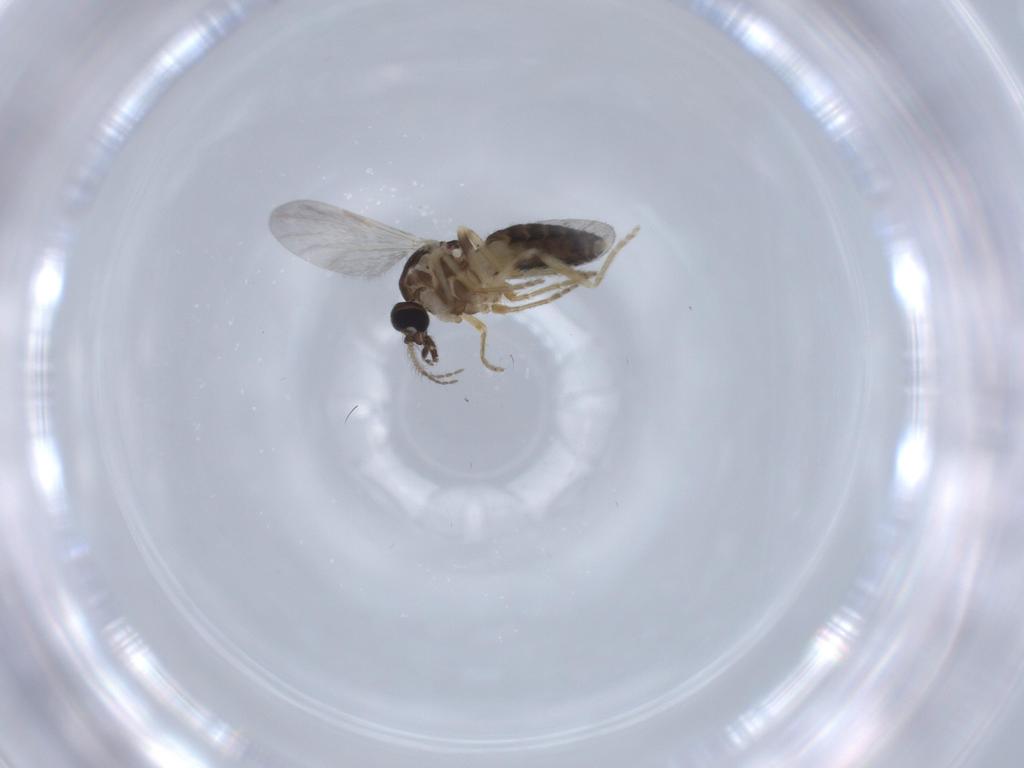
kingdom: Animalia
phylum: Arthropoda
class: Insecta
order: Diptera
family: Ceratopogonidae
